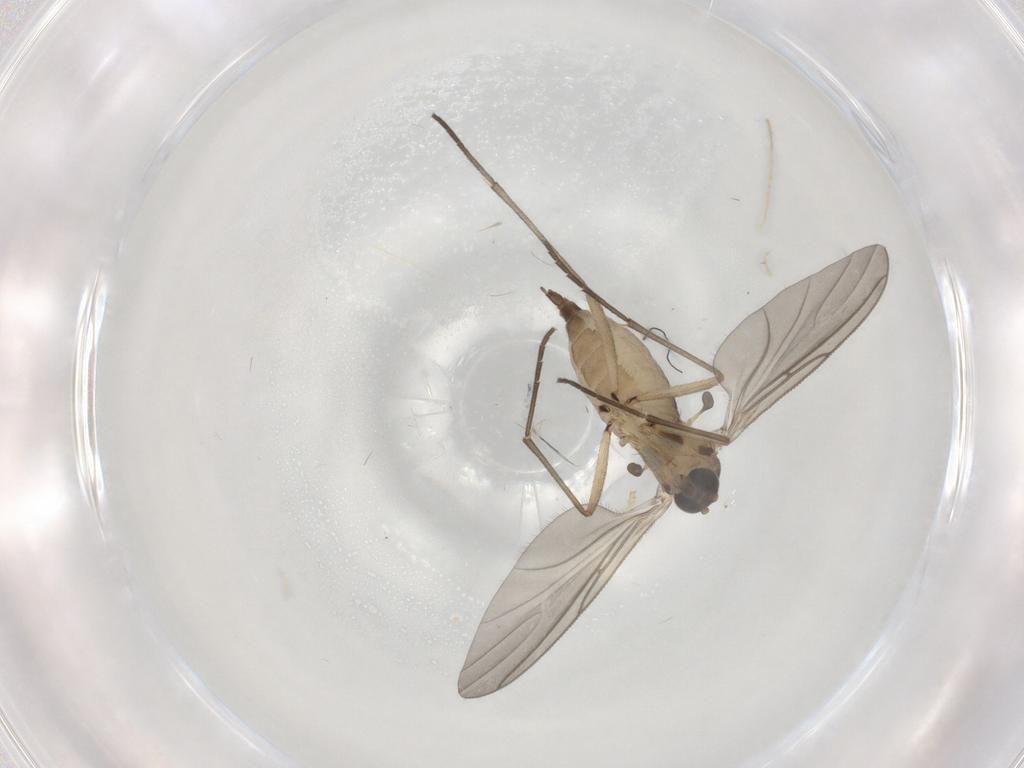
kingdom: Animalia
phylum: Arthropoda
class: Insecta
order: Diptera
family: Sciaridae
